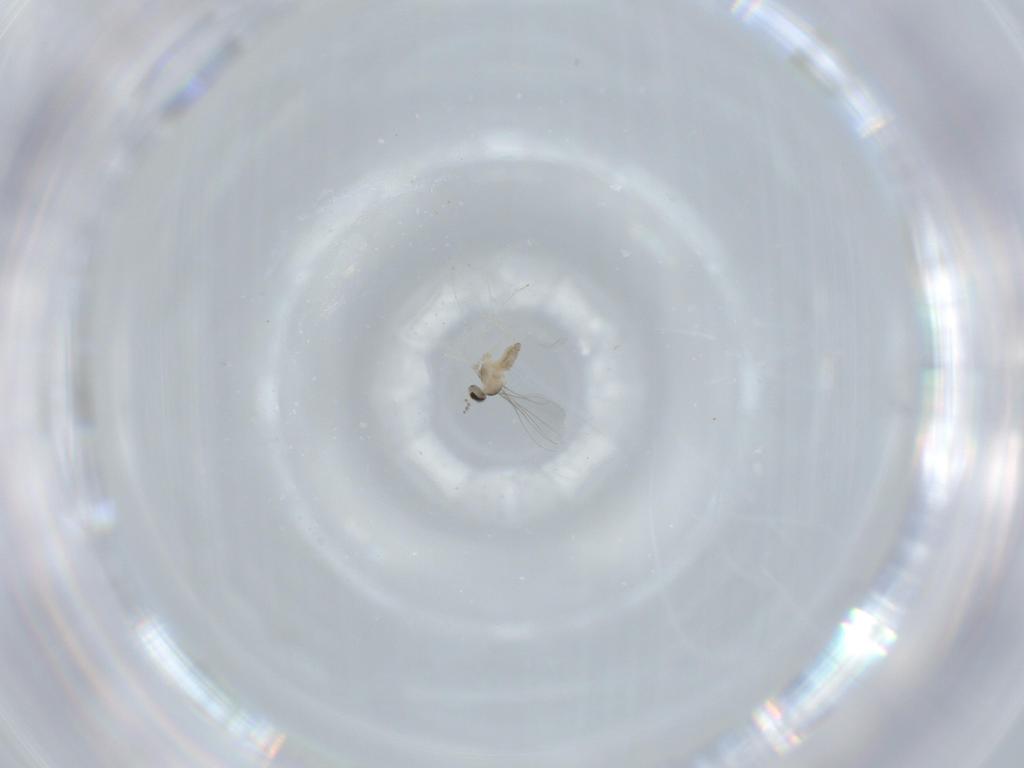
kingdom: Animalia
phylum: Arthropoda
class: Insecta
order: Diptera
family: Cecidomyiidae
